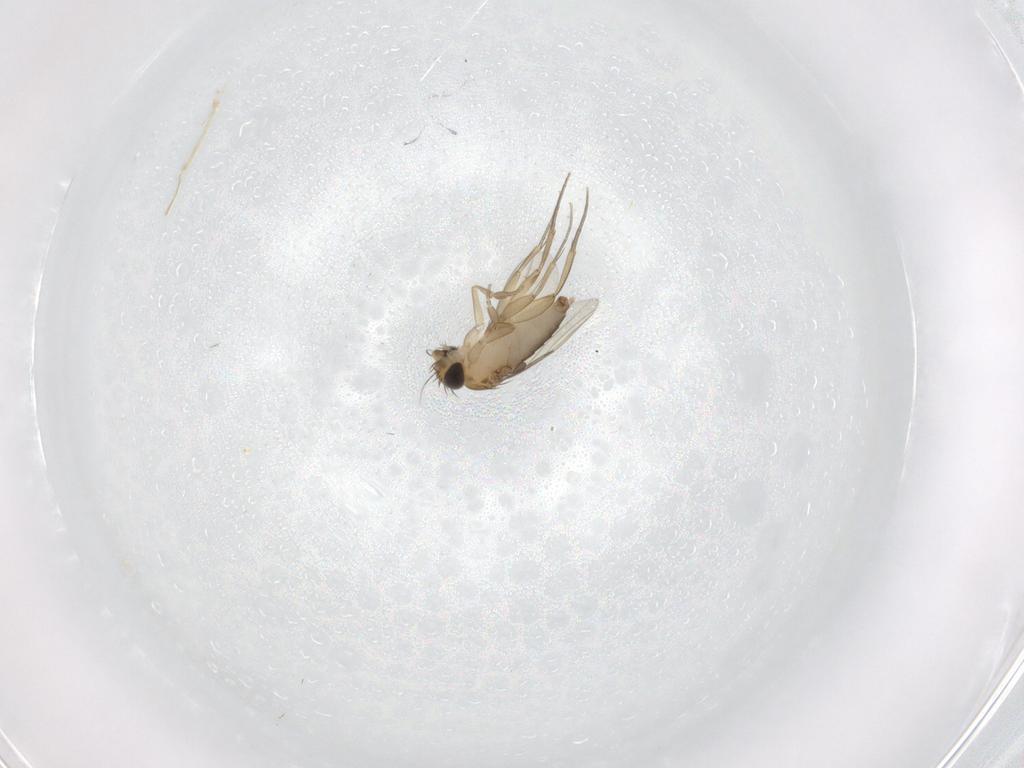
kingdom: Animalia
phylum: Arthropoda
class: Insecta
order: Diptera
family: Phoridae
